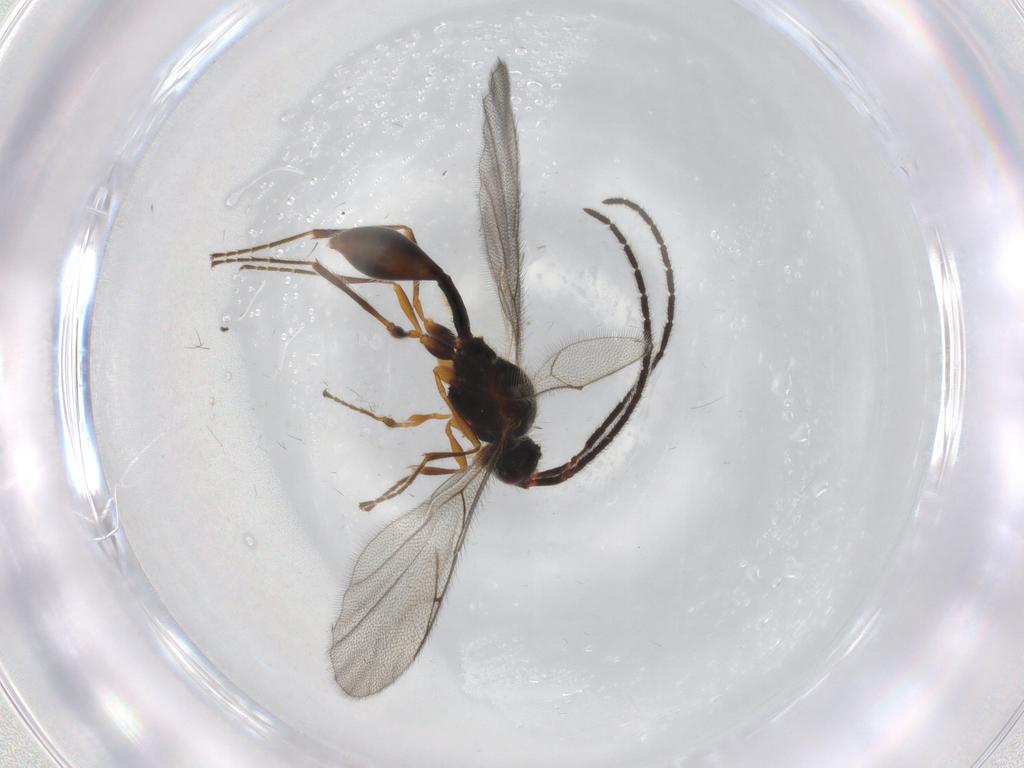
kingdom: Animalia
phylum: Arthropoda
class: Insecta
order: Hymenoptera
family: Diapriidae
